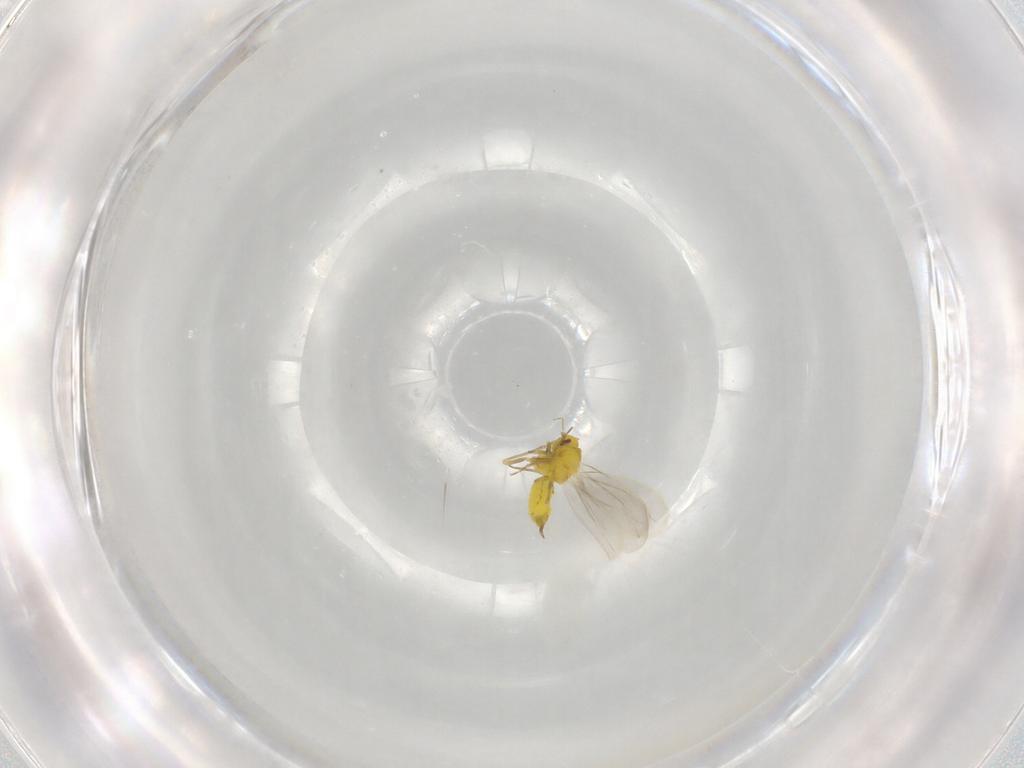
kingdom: Animalia
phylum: Arthropoda
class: Insecta
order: Hemiptera
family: Aleyrodidae
